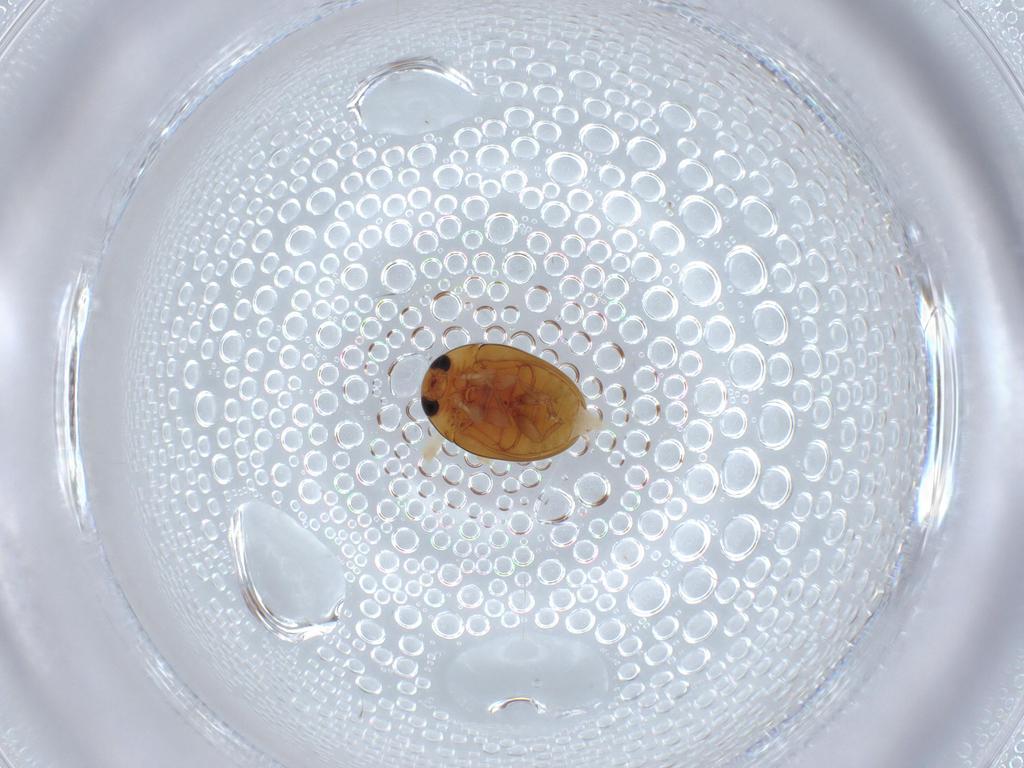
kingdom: Animalia
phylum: Arthropoda
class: Insecta
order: Coleoptera
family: Phalacridae
